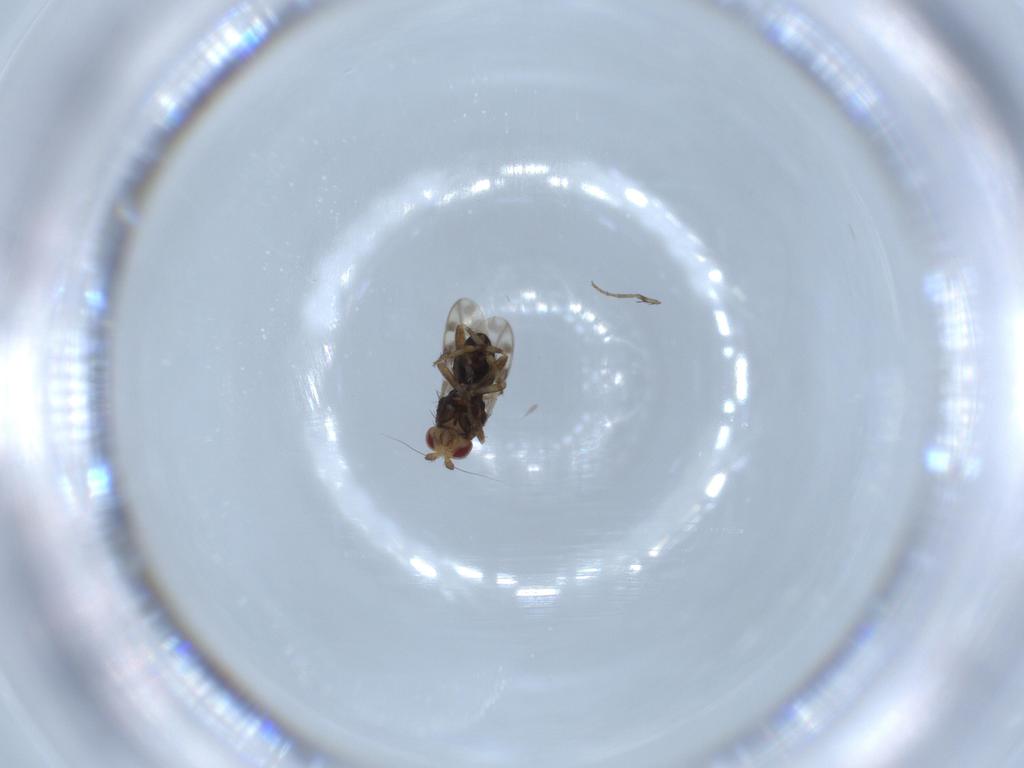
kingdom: Animalia
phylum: Arthropoda
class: Insecta
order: Diptera
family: Sphaeroceridae
